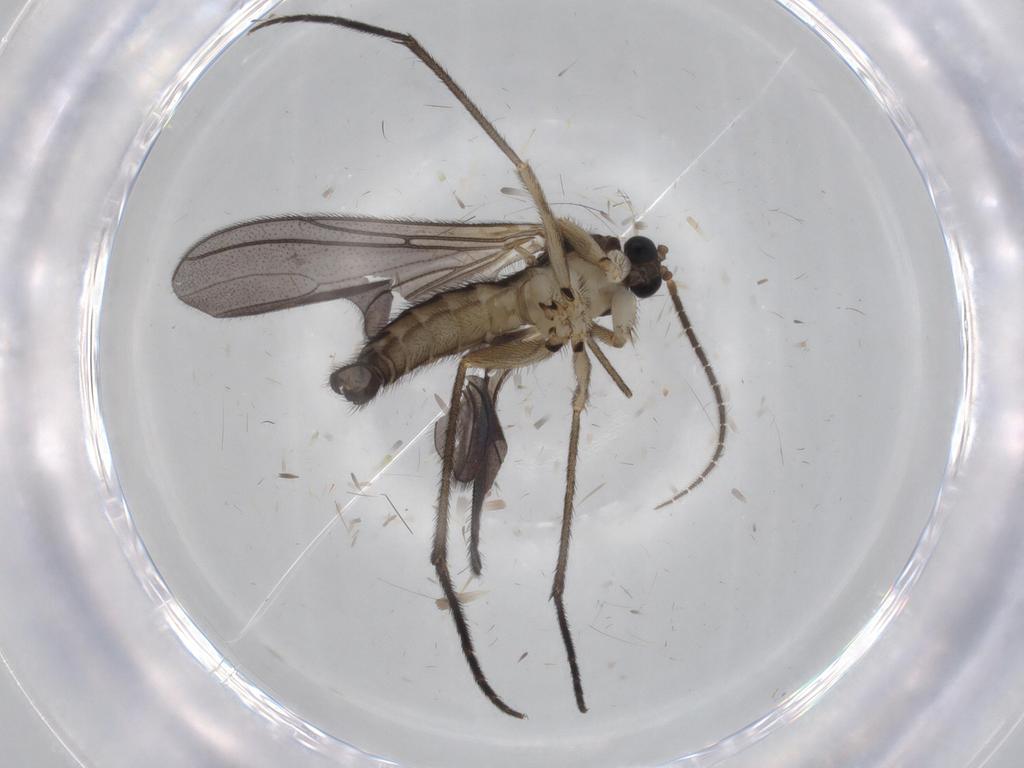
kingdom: Animalia
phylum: Arthropoda
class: Insecta
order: Diptera
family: Sciaridae
